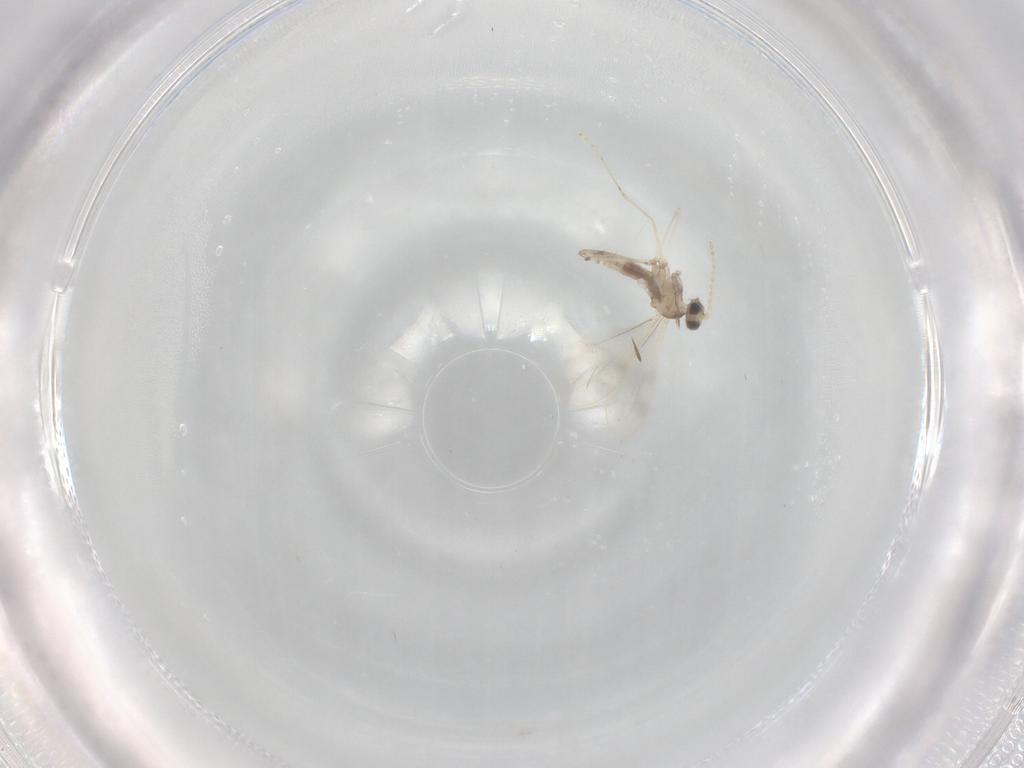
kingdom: Animalia
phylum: Arthropoda
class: Insecta
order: Diptera
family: Cecidomyiidae
